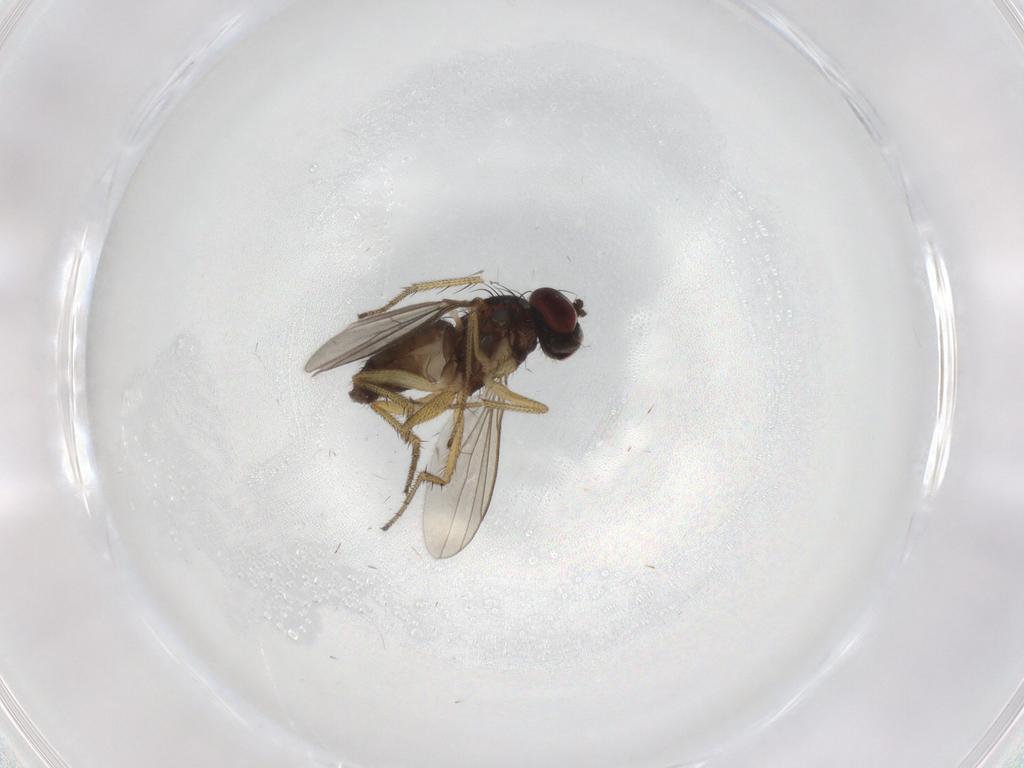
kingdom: Animalia
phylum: Arthropoda
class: Insecta
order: Diptera
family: Dolichopodidae
